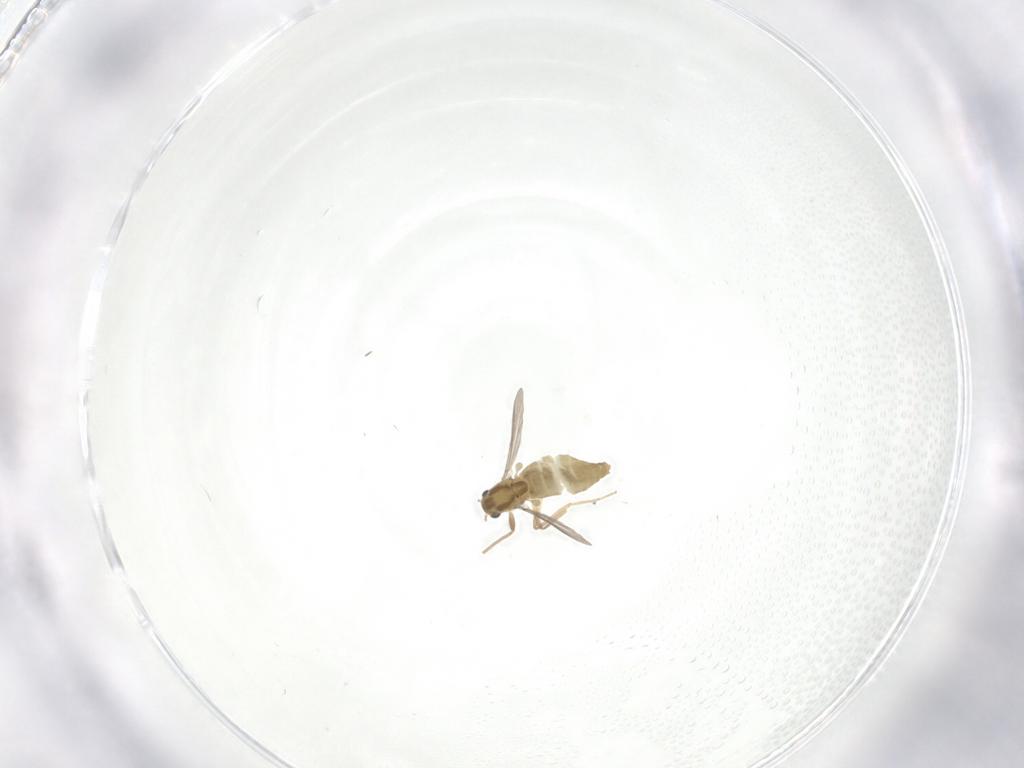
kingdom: Animalia
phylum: Arthropoda
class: Insecta
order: Diptera
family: Chironomidae
